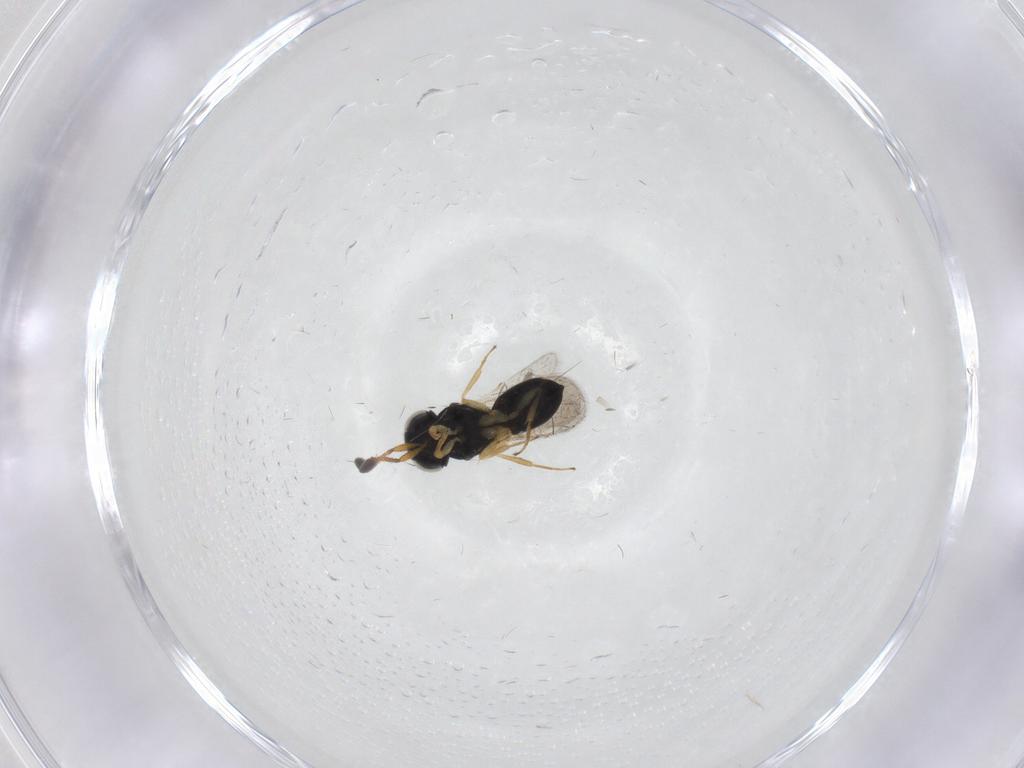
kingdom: Animalia
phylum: Arthropoda
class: Insecta
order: Hymenoptera
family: Scelionidae
